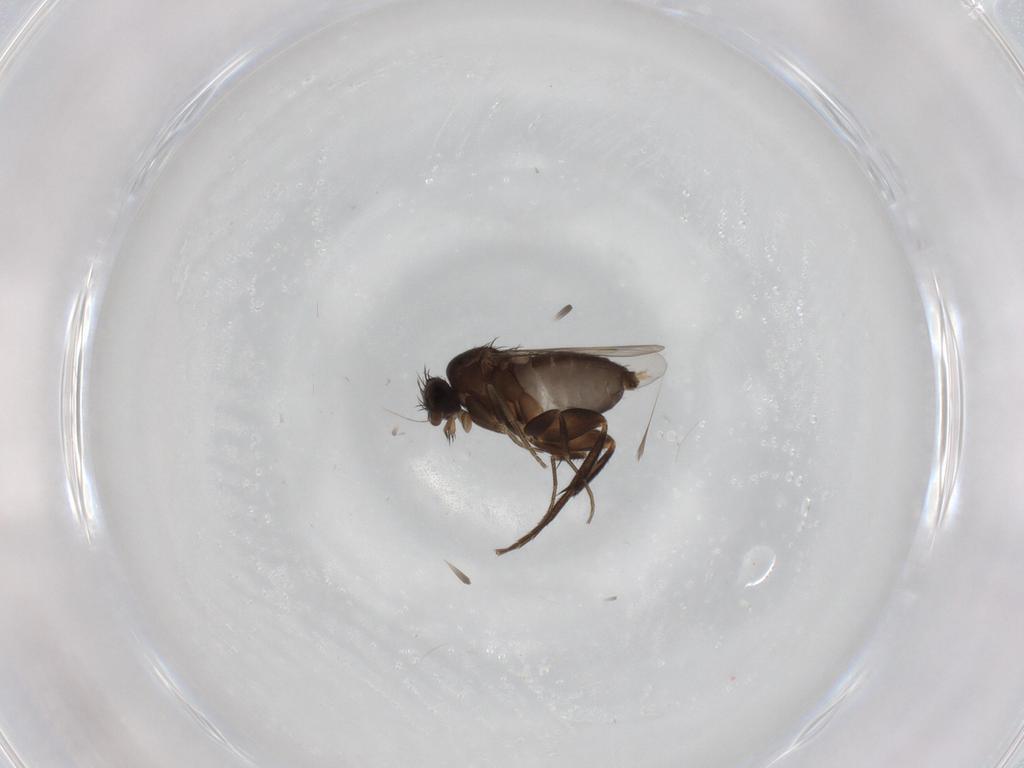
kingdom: Animalia
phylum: Arthropoda
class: Insecta
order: Diptera
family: Phoridae
